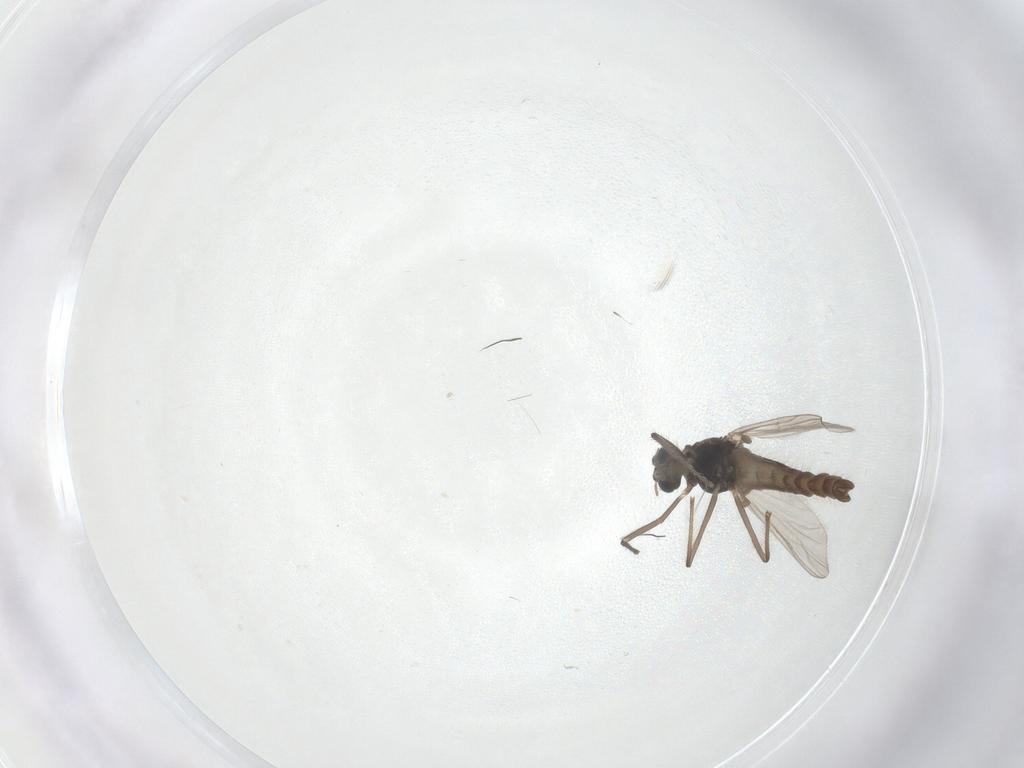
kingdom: Animalia
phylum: Arthropoda
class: Insecta
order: Diptera
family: Chironomidae
